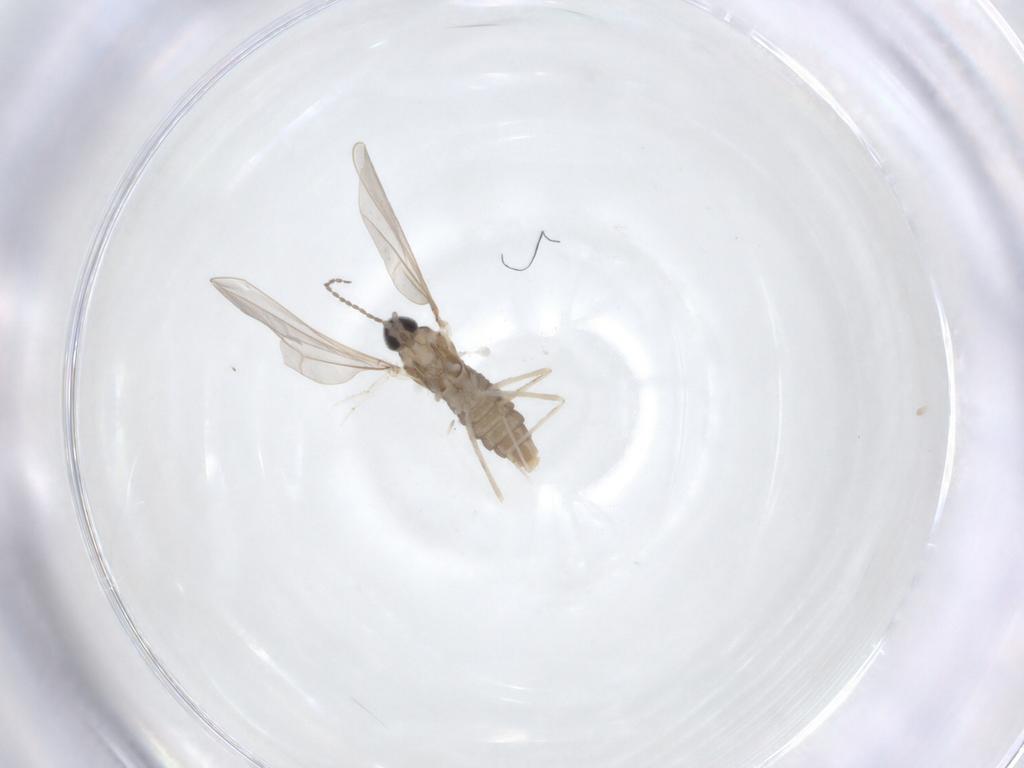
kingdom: Animalia
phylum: Arthropoda
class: Insecta
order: Diptera
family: Cecidomyiidae
